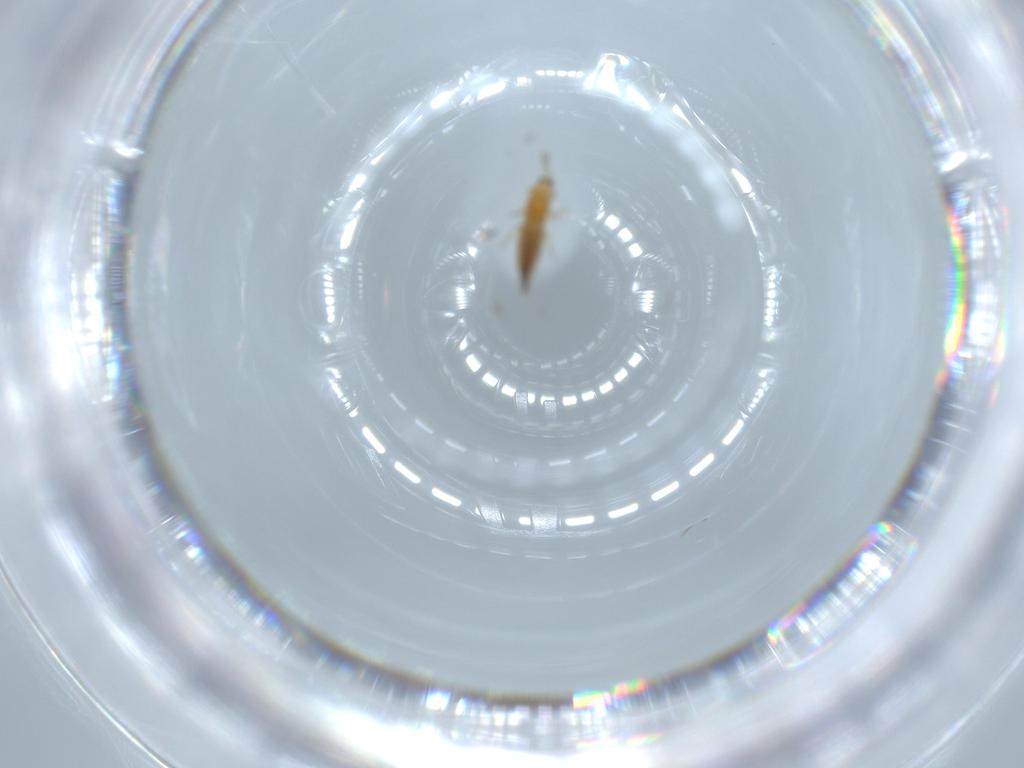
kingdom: Animalia
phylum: Arthropoda
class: Insecta
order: Thysanoptera
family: Thripidae
